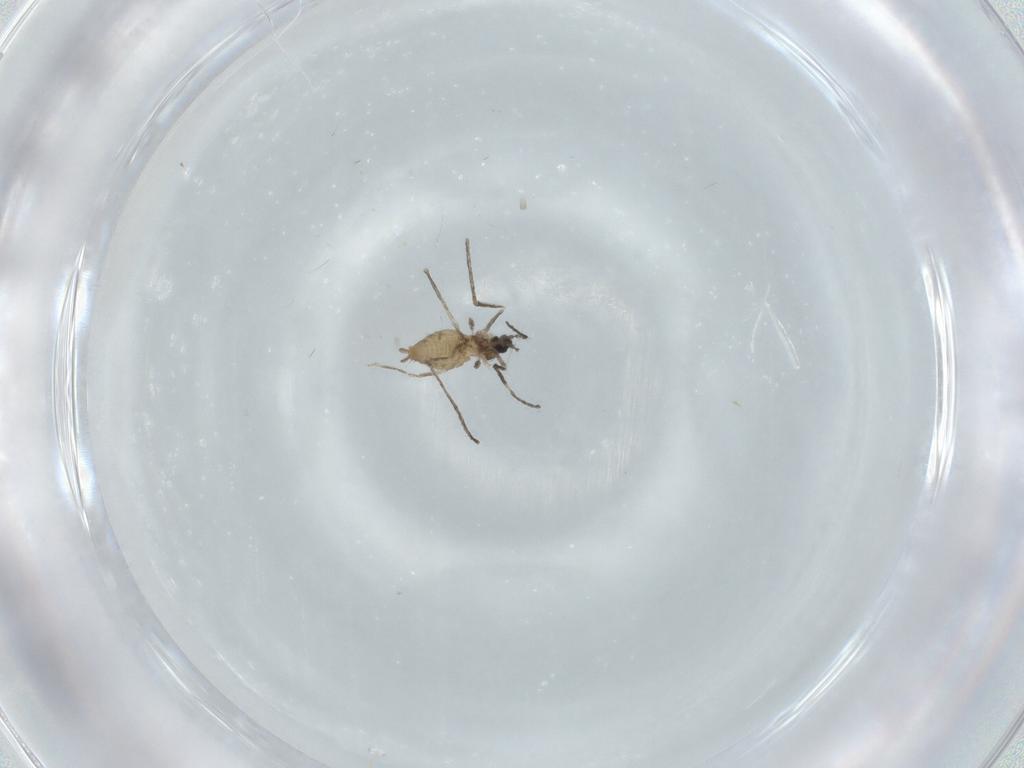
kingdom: Animalia
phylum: Arthropoda
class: Insecta
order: Diptera
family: Cecidomyiidae
